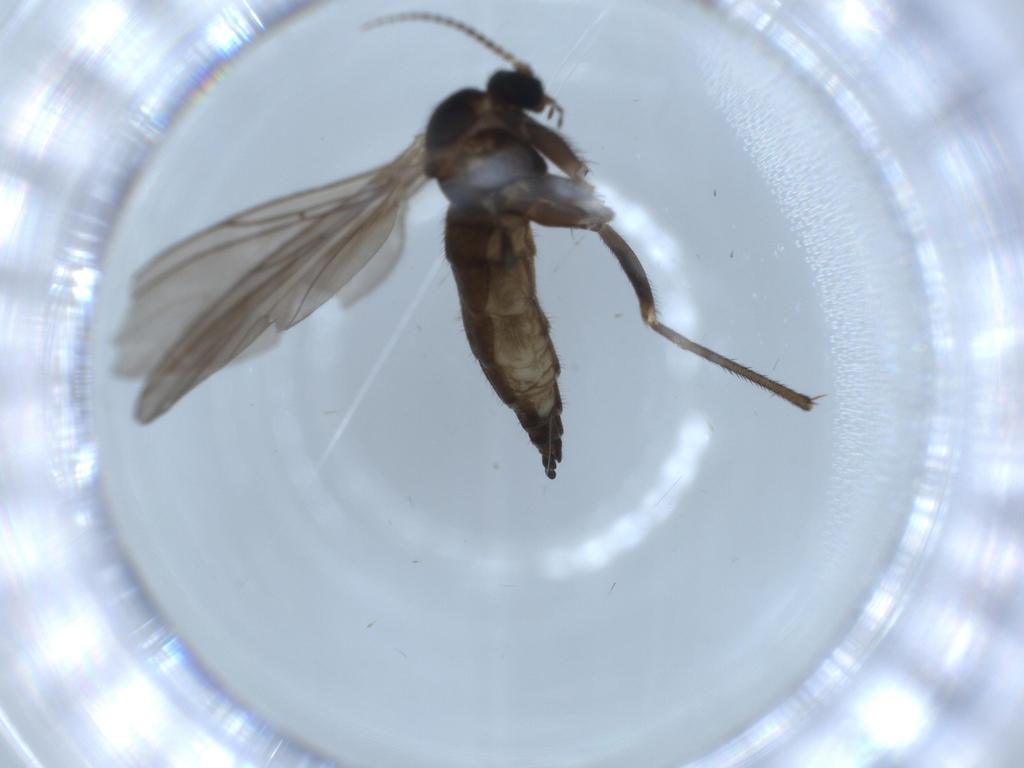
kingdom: Animalia
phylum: Arthropoda
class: Insecta
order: Diptera
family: Sciaridae
